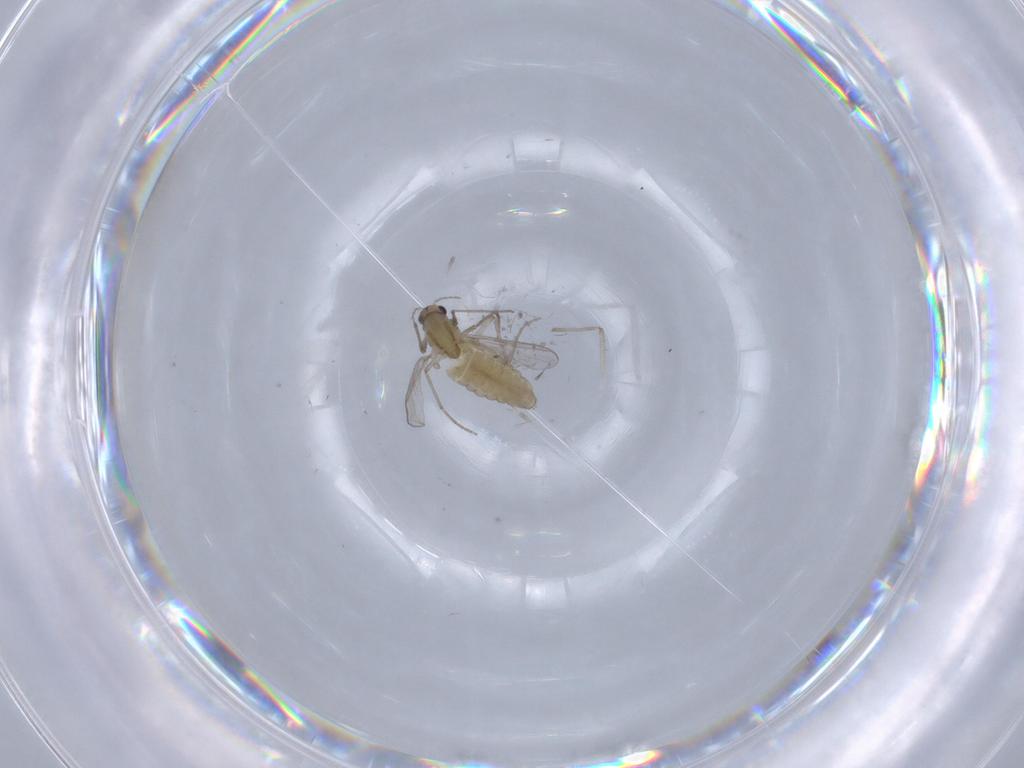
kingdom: Animalia
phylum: Arthropoda
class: Insecta
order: Diptera
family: Chironomidae
